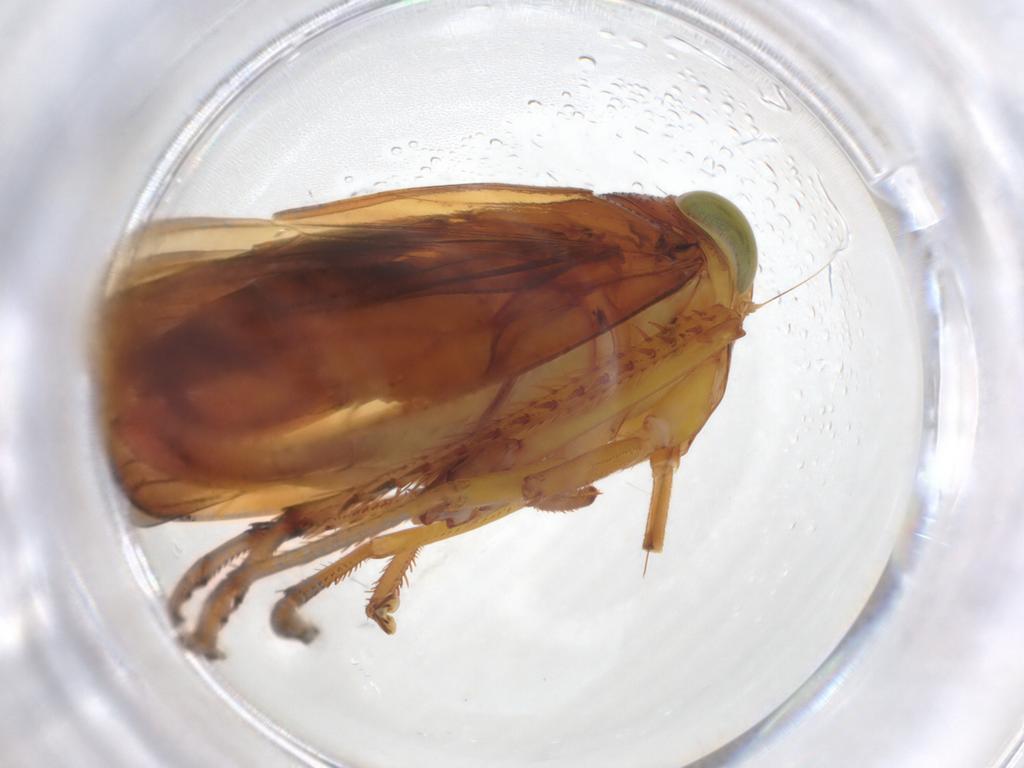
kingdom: Animalia
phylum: Arthropoda
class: Insecta
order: Hemiptera
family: Cicadellidae
